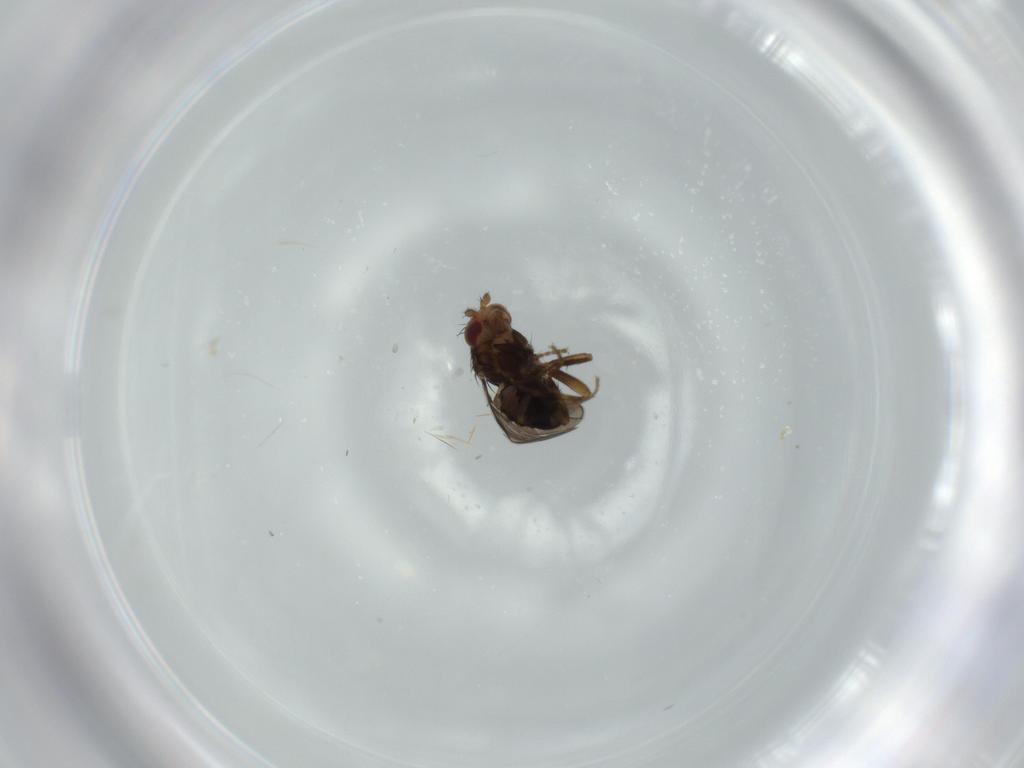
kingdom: Animalia
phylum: Arthropoda
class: Insecta
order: Diptera
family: Sphaeroceridae
